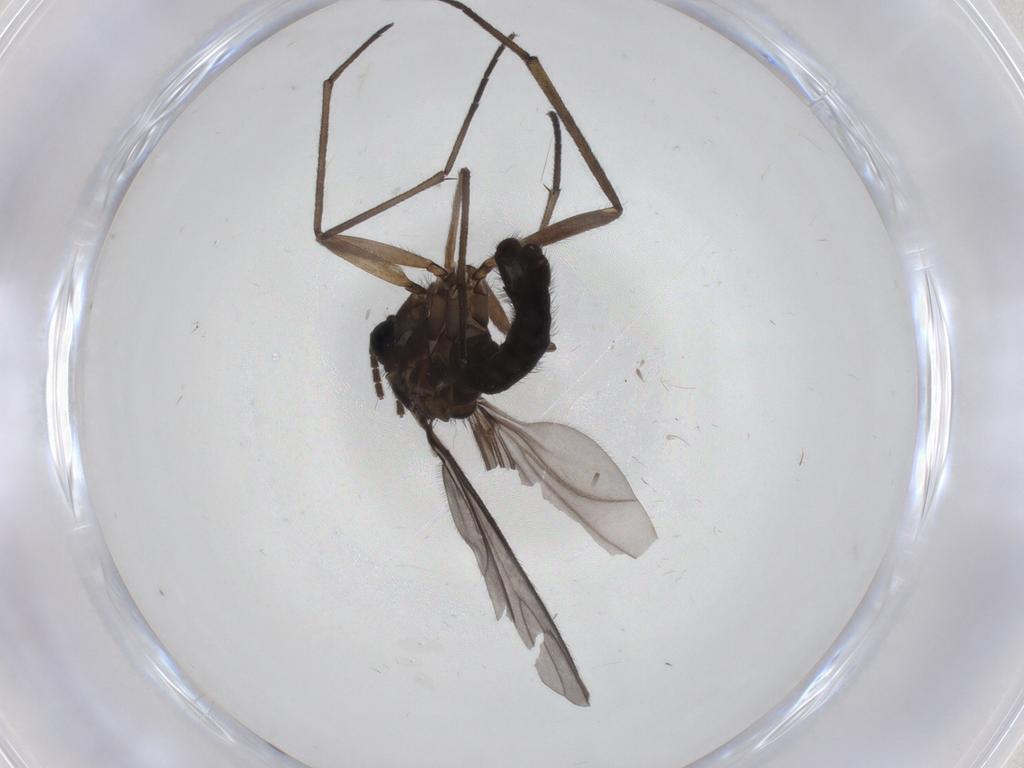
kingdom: Animalia
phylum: Arthropoda
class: Insecta
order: Diptera
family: Sciaridae
